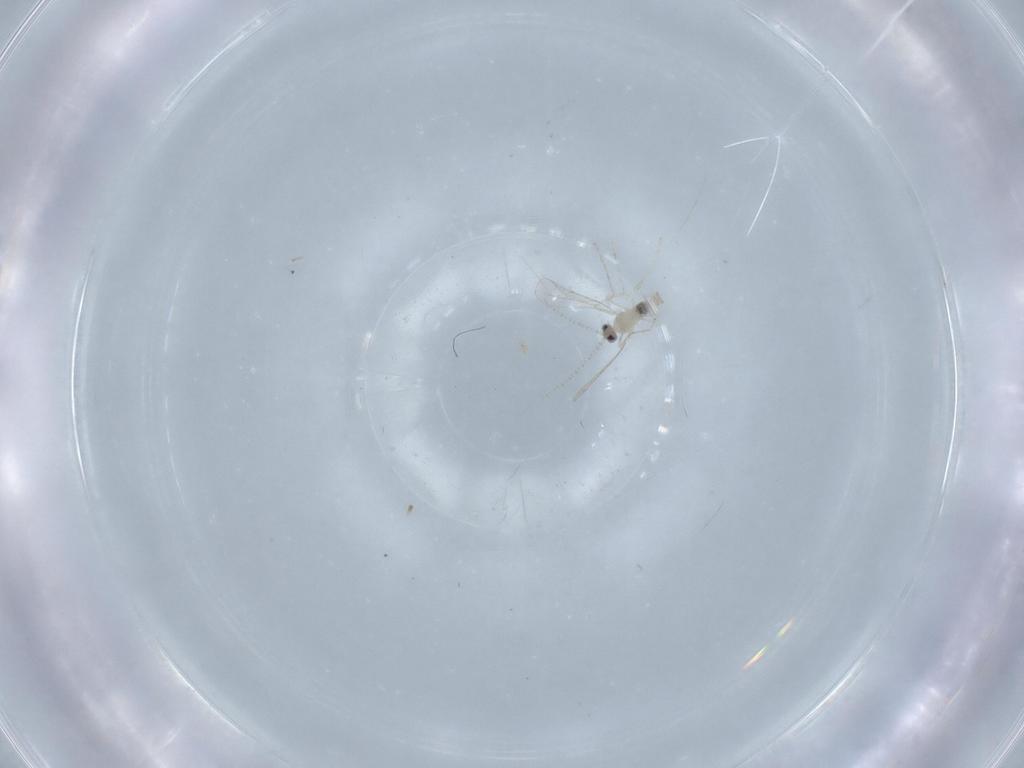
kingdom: Animalia
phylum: Arthropoda
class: Insecta
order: Diptera
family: Cecidomyiidae
